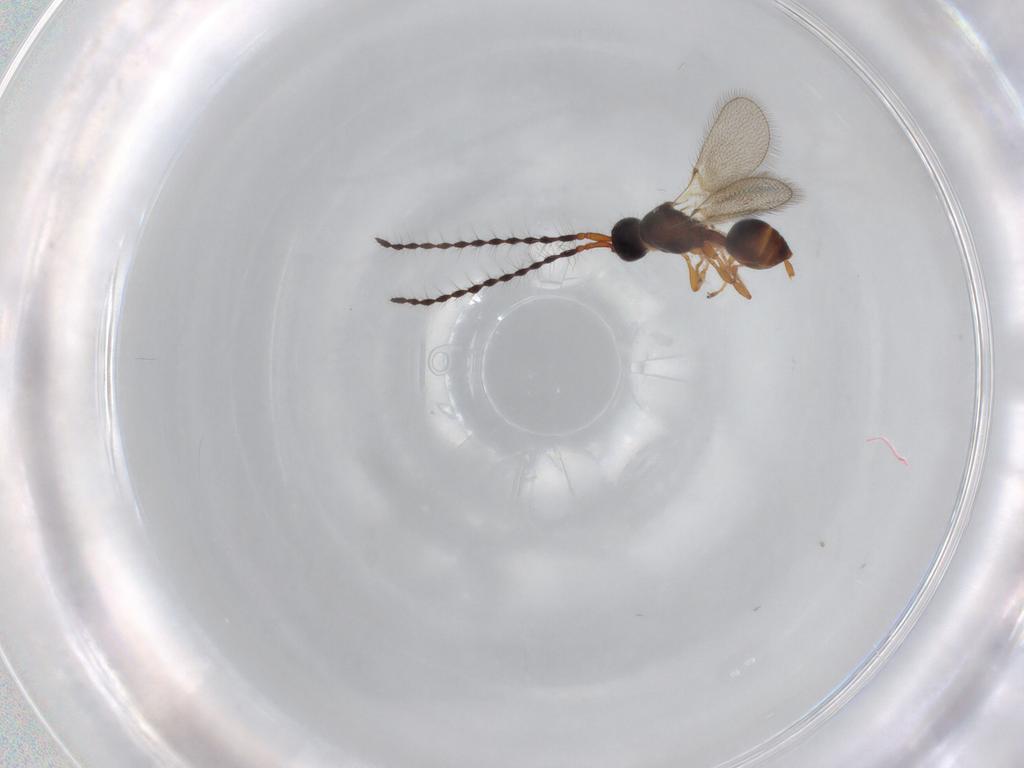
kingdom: Animalia
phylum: Arthropoda
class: Insecta
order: Hymenoptera
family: Diapriidae
